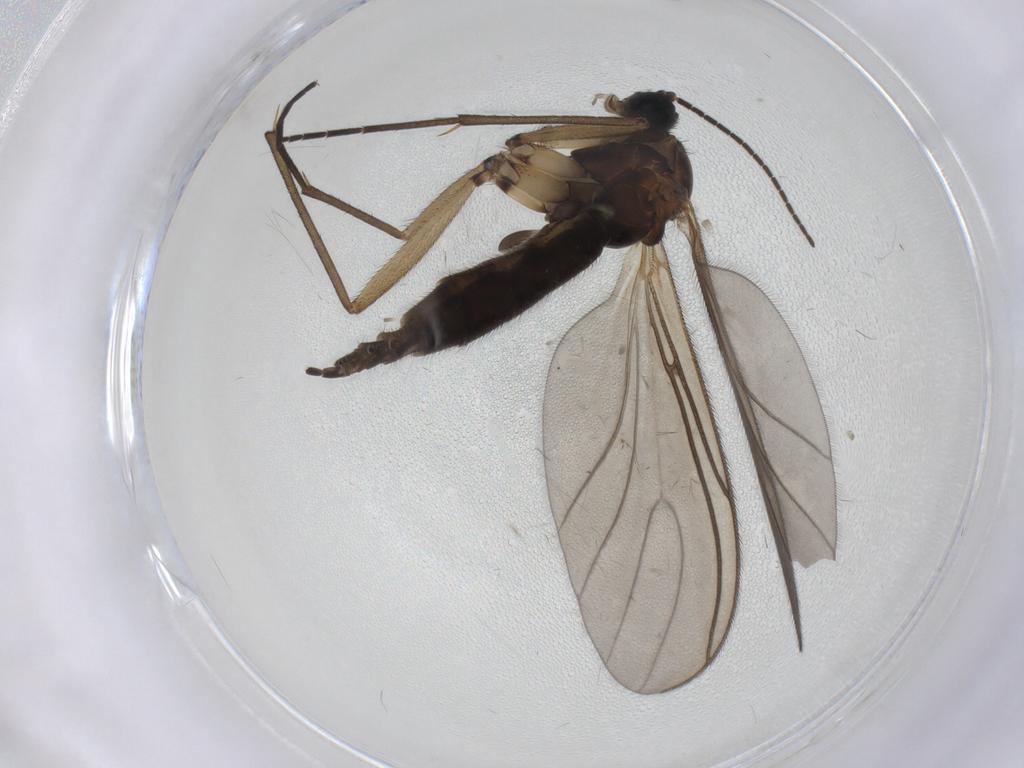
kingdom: Animalia
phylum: Arthropoda
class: Insecta
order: Diptera
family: Sciaridae
